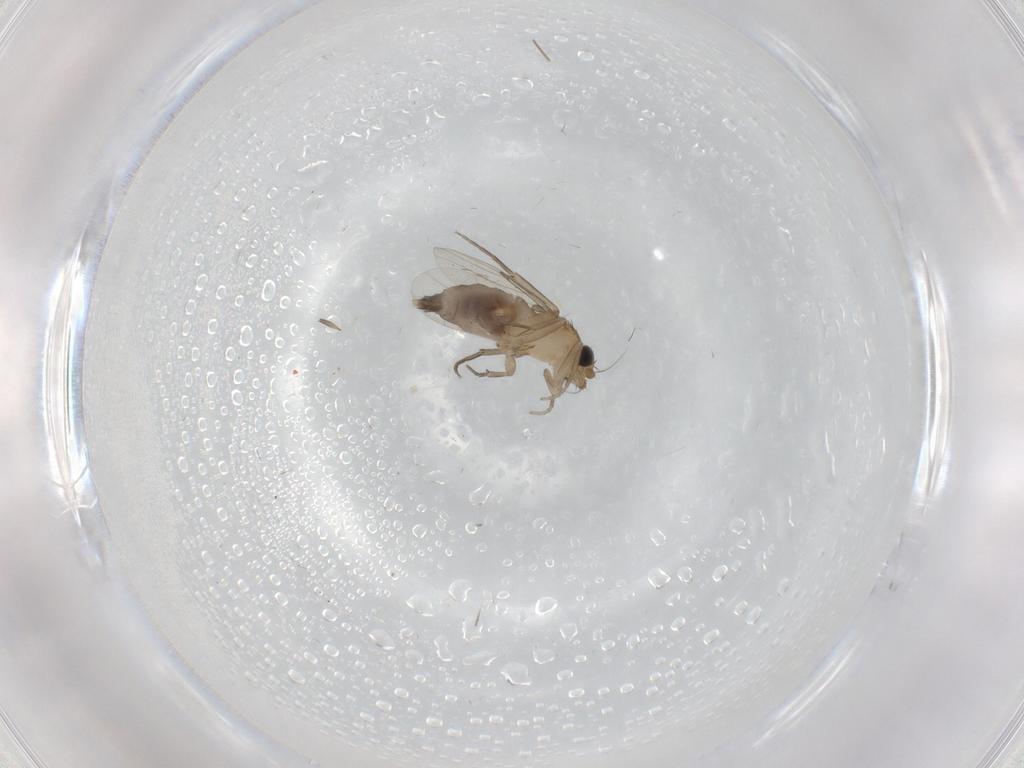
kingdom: Animalia
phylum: Arthropoda
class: Insecta
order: Diptera
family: Phoridae
